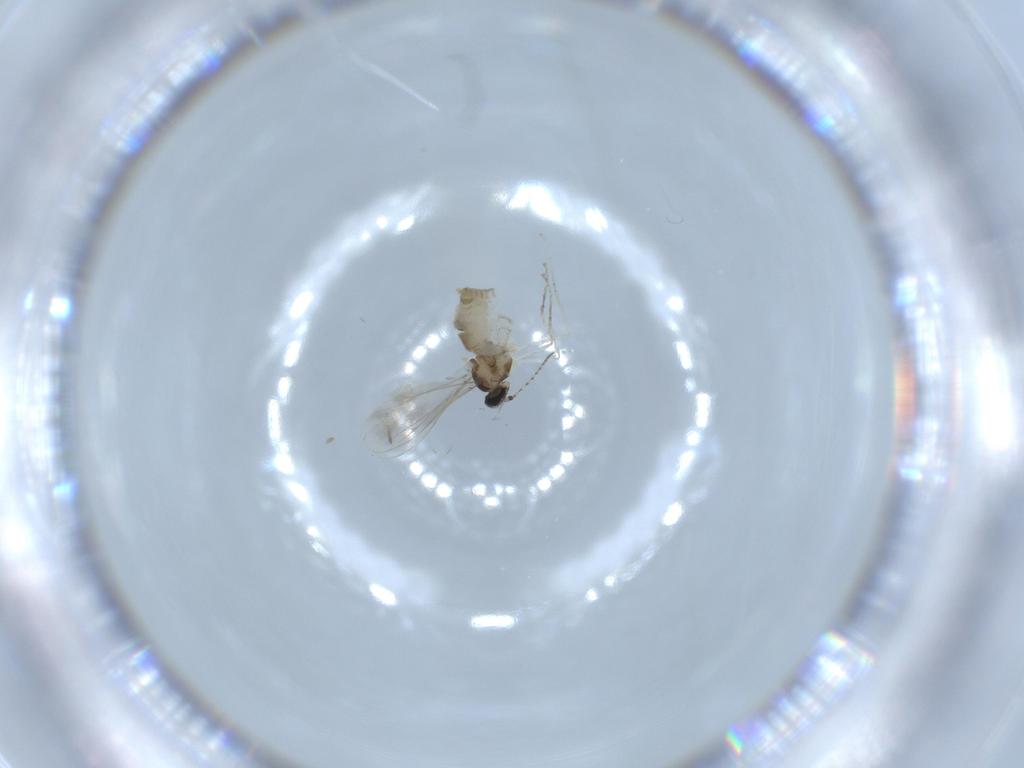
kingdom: Animalia
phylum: Arthropoda
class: Insecta
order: Diptera
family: Cecidomyiidae
